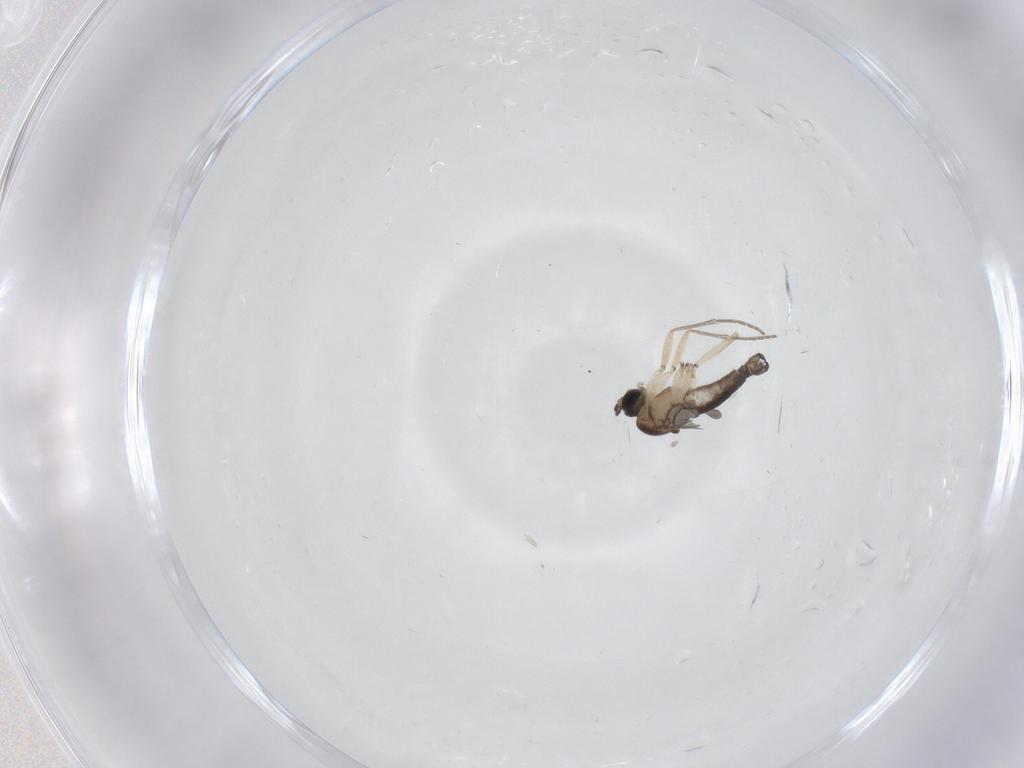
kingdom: Animalia
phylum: Arthropoda
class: Insecta
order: Diptera
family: Sciaridae
